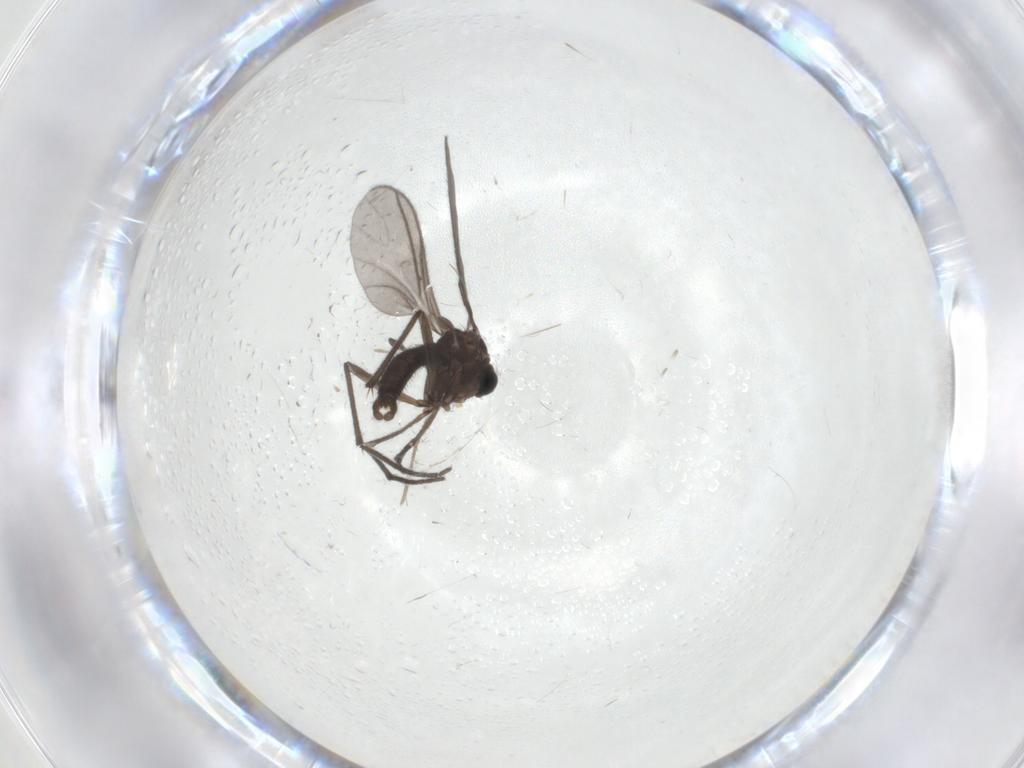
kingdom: Animalia
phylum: Arthropoda
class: Insecta
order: Diptera
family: Sciaridae
